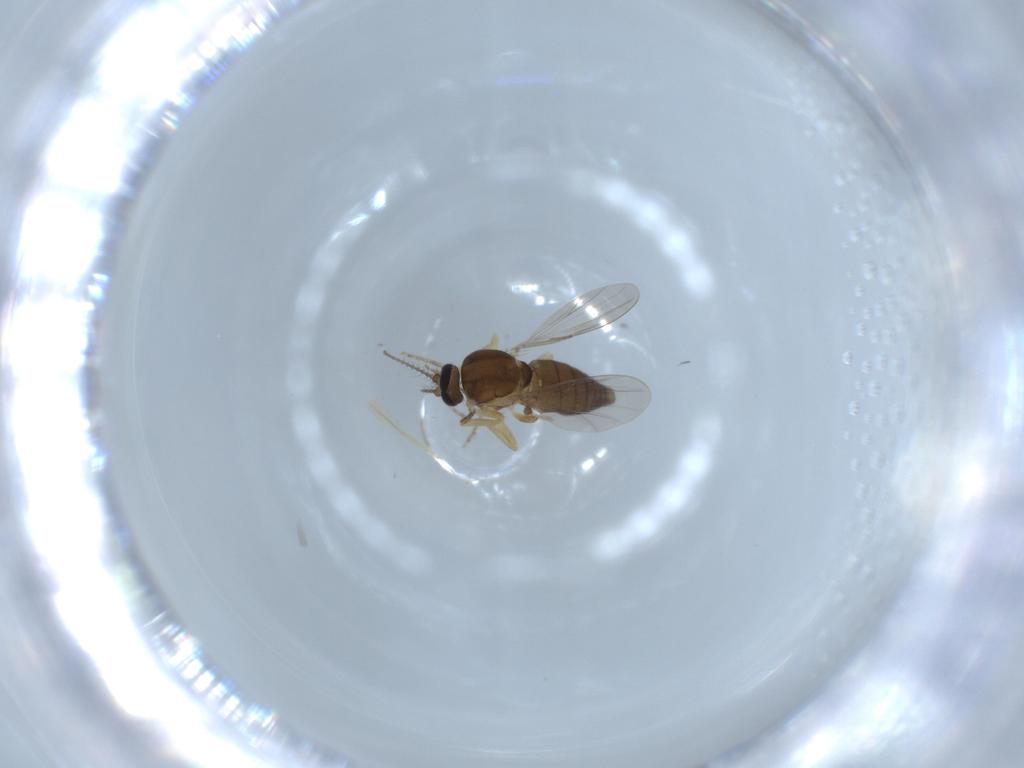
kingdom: Animalia
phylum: Arthropoda
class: Insecta
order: Diptera
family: Ceratopogonidae
